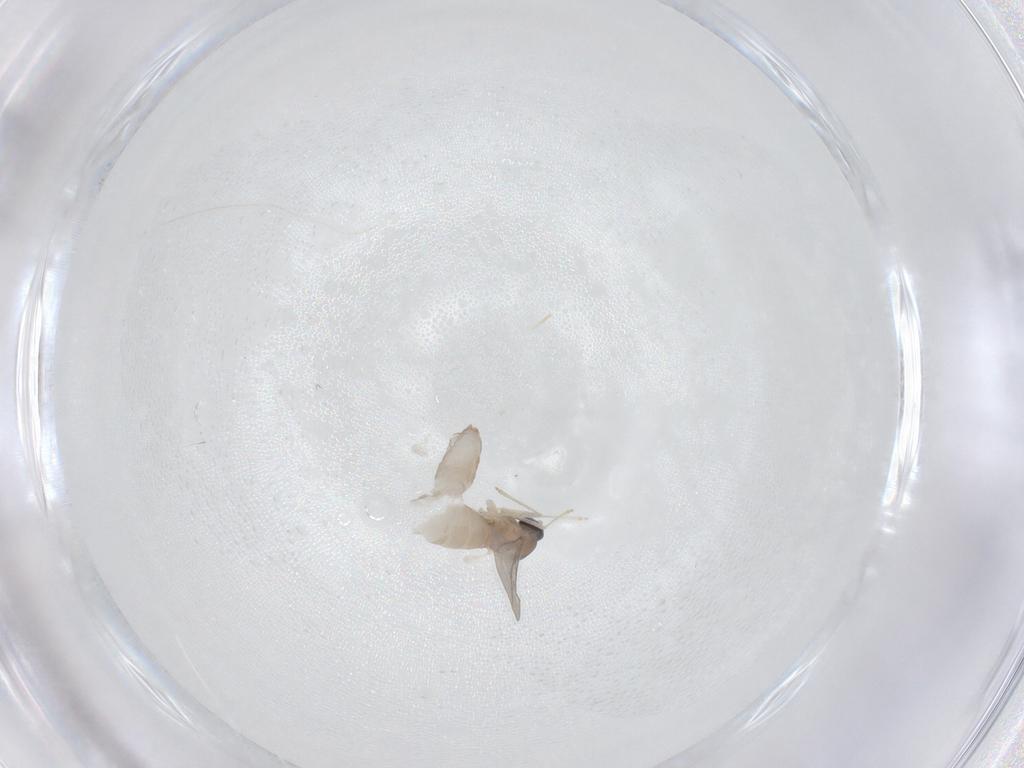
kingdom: Animalia
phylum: Arthropoda
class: Insecta
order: Diptera
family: Cecidomyiidae
